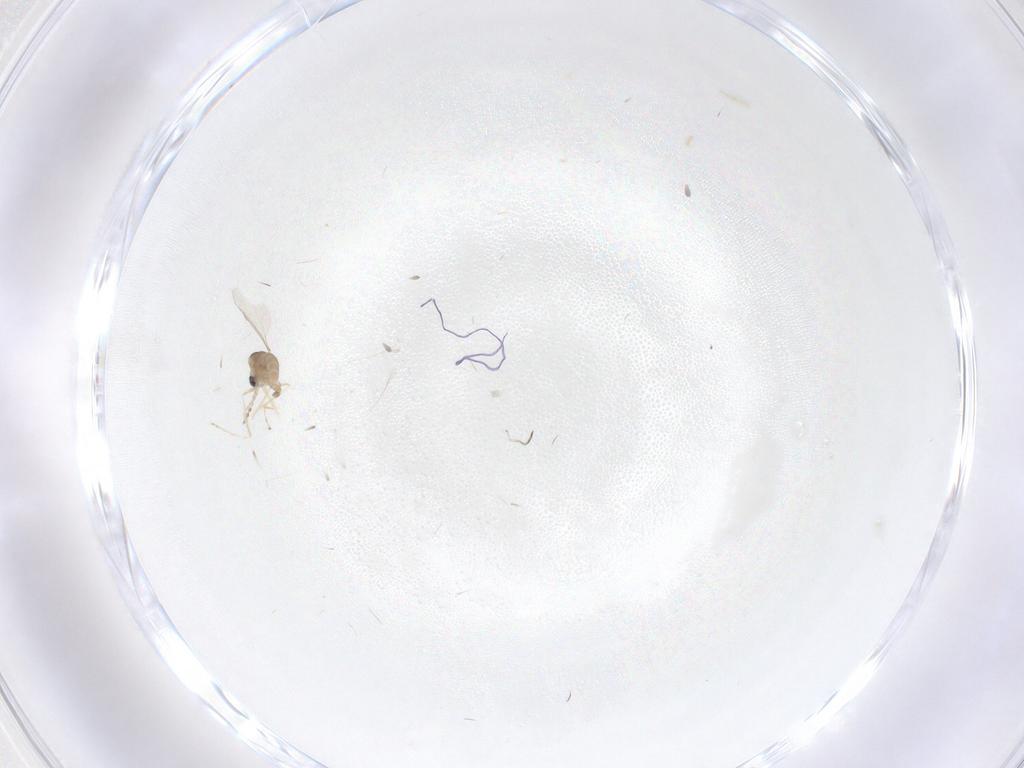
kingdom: Animalia
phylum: Arthropoda
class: Insecta
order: Diptera
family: Cecidomyiidae
